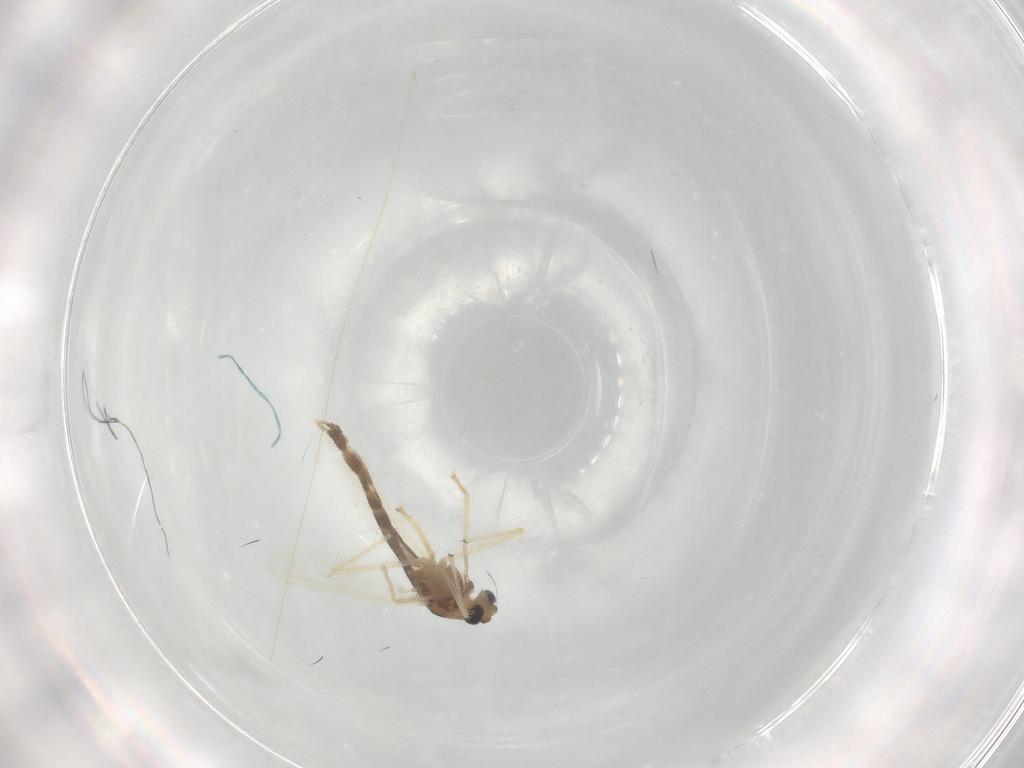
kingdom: Animalia
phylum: Arthropoda
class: Insecta
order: Diptera
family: Chironomidae
